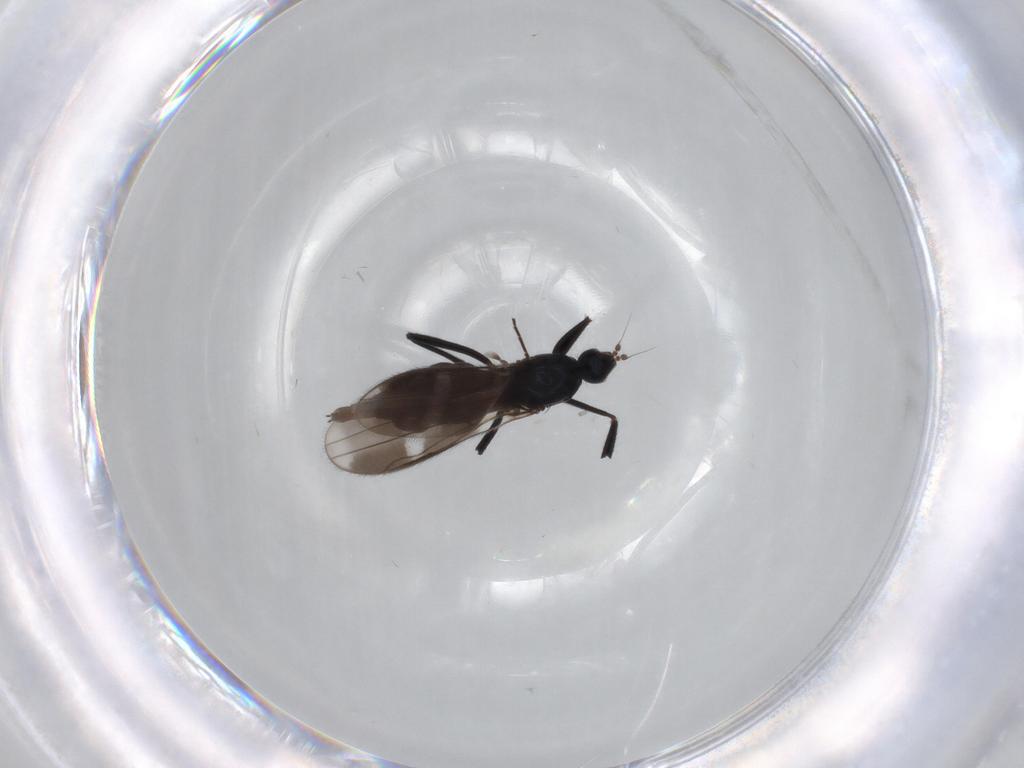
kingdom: Animalia
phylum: Arthropoda
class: Insecta
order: Diptera
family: Hybotidae
